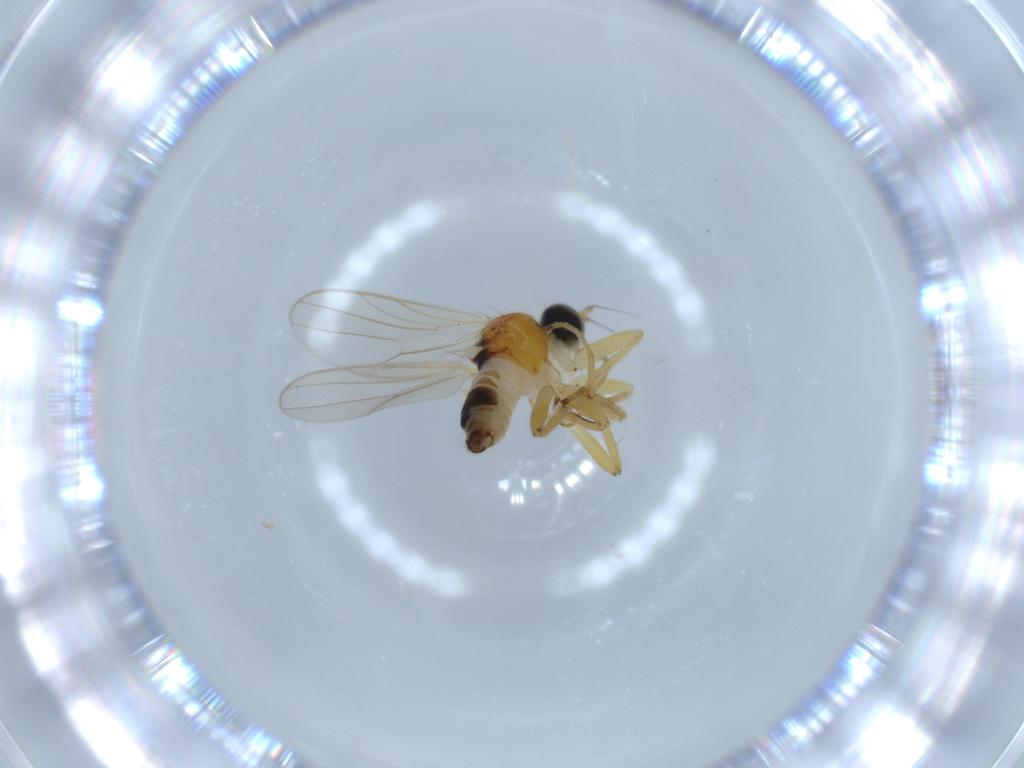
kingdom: Animalia
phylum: Arthropoda
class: Insecta
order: Diptera
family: Hybotidae
